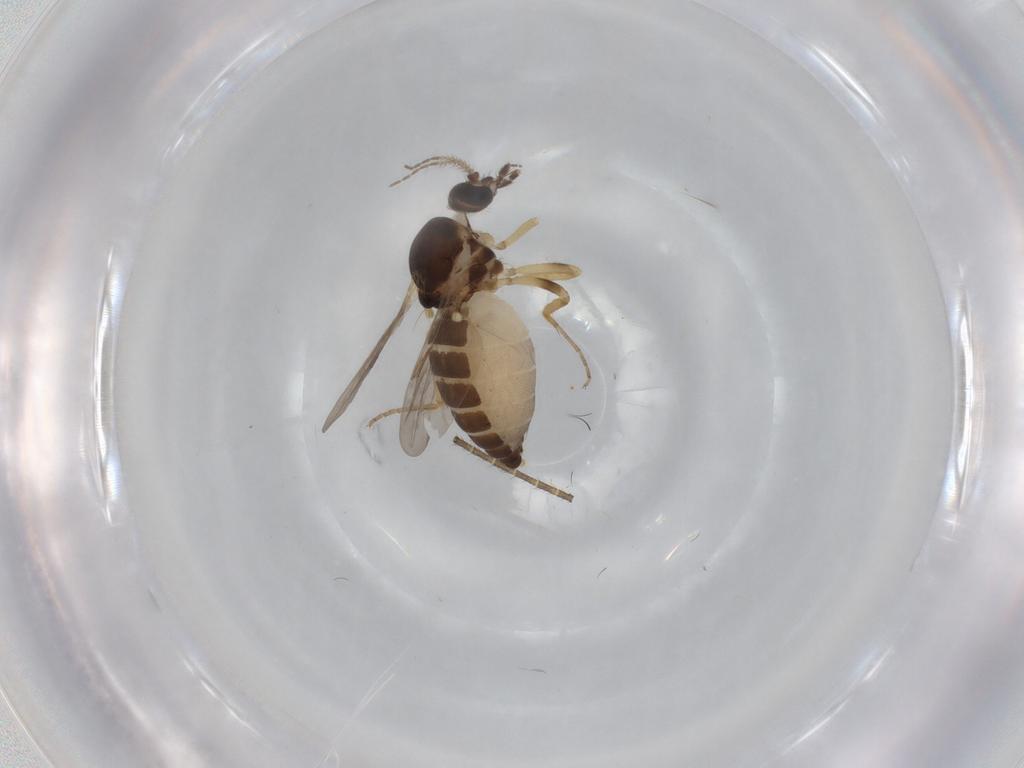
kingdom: Animalia
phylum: Arthropoda
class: Insecta
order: Diptera
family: Ceratopogonidae
